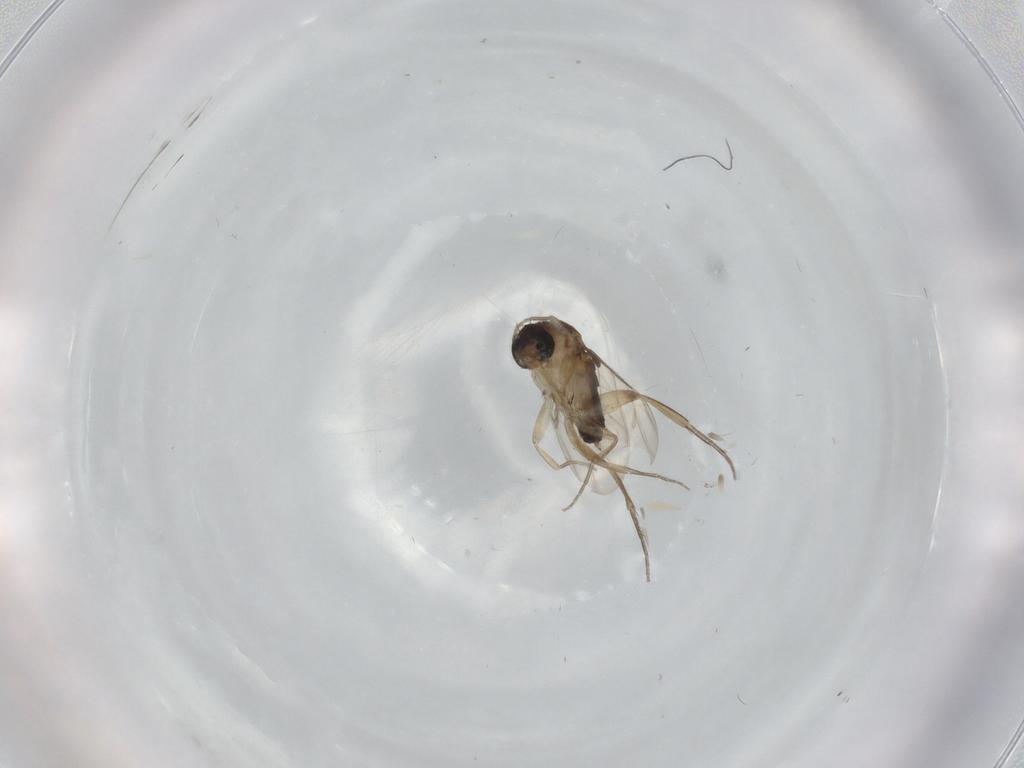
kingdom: Animalia
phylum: Arthropoda
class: Insecta
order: Diptera
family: Phoridae
